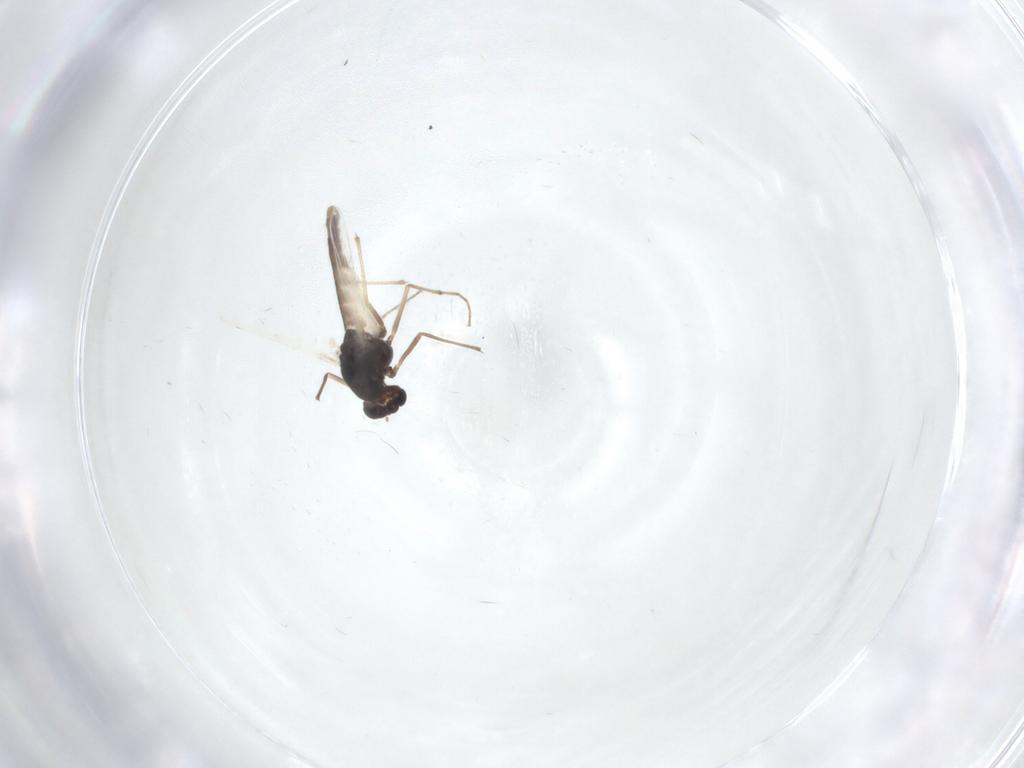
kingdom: Animalia
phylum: Arthropoda
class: Insecta
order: Diptera
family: Chironomidae
